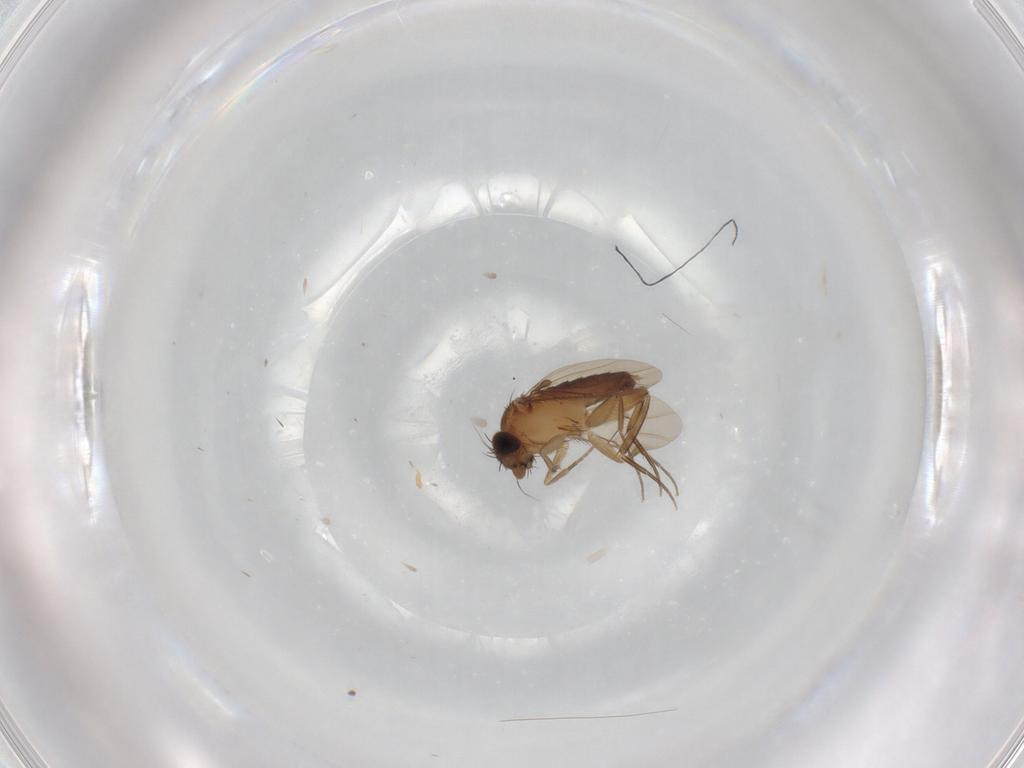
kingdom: Animalia
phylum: Arthropoda
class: Insecta
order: Diptera
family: Phoridae
